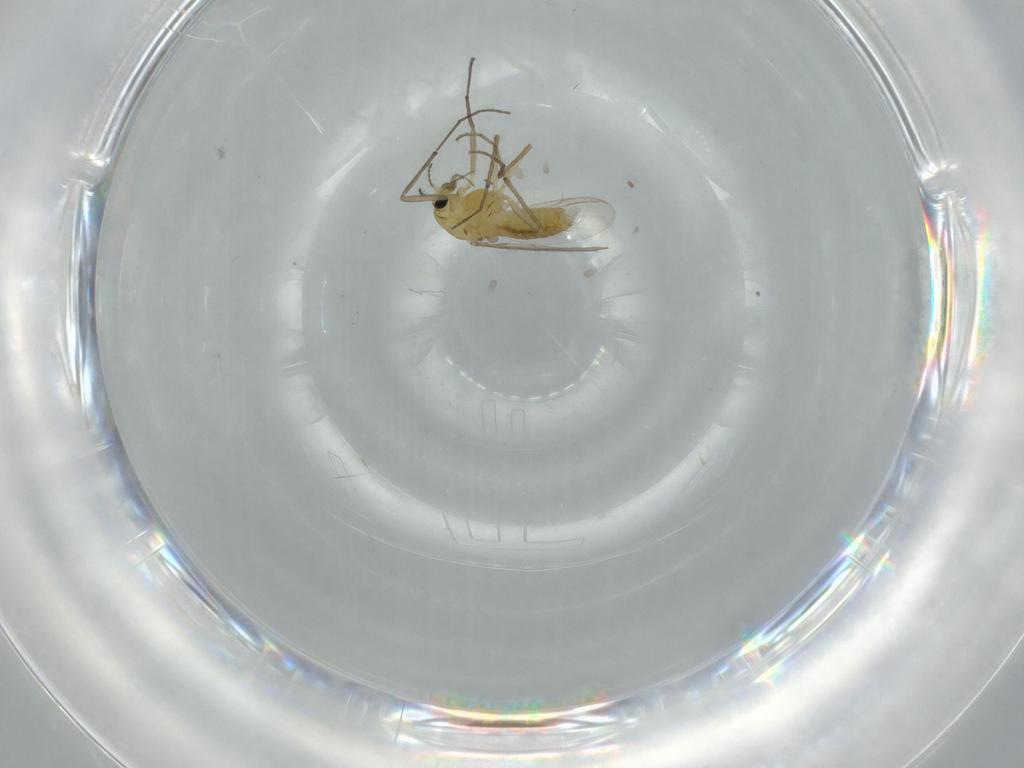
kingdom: Animalia
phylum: Arthropoda
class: Insecta
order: Diptera
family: Chironomidae
